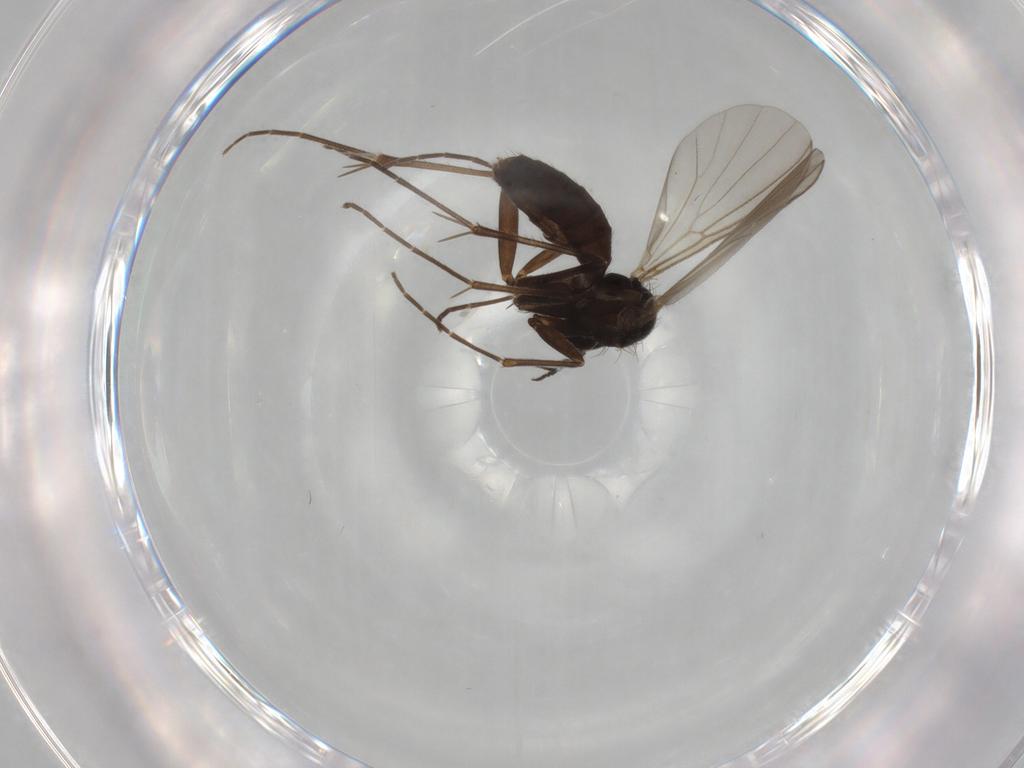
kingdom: Animalia
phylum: Arthropoda
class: Insecta
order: Diptera
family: Mycetophilidae
